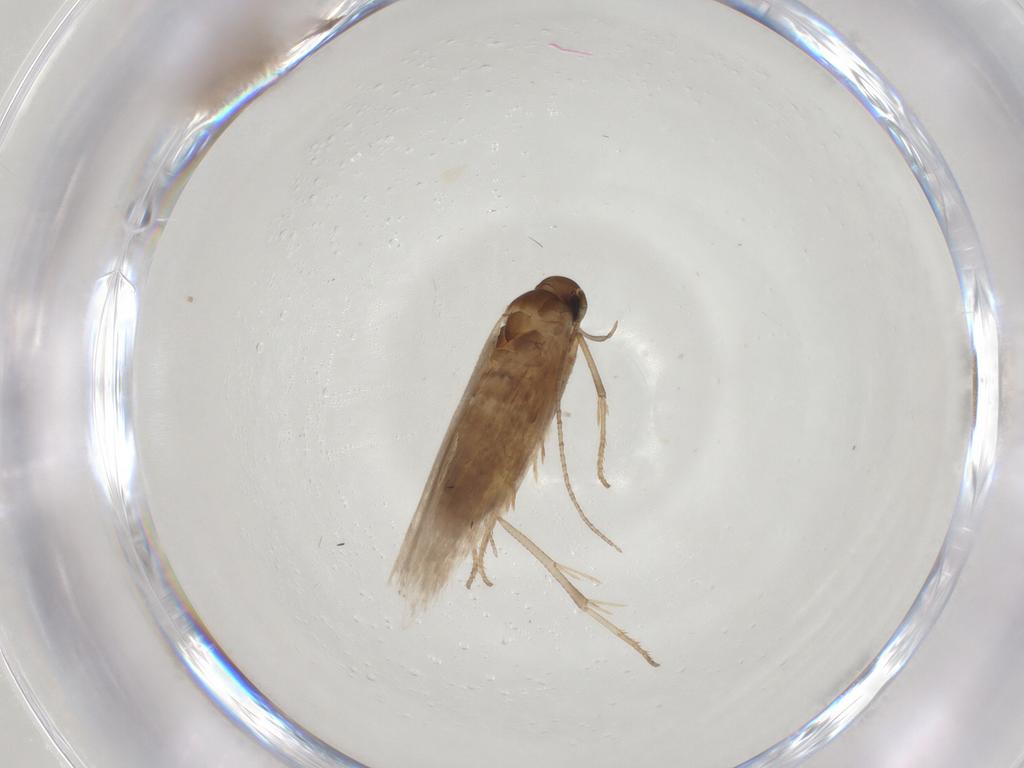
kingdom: Animalia
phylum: Arthropoda
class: Insecta
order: Lepidoptera
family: Gelechiidae
